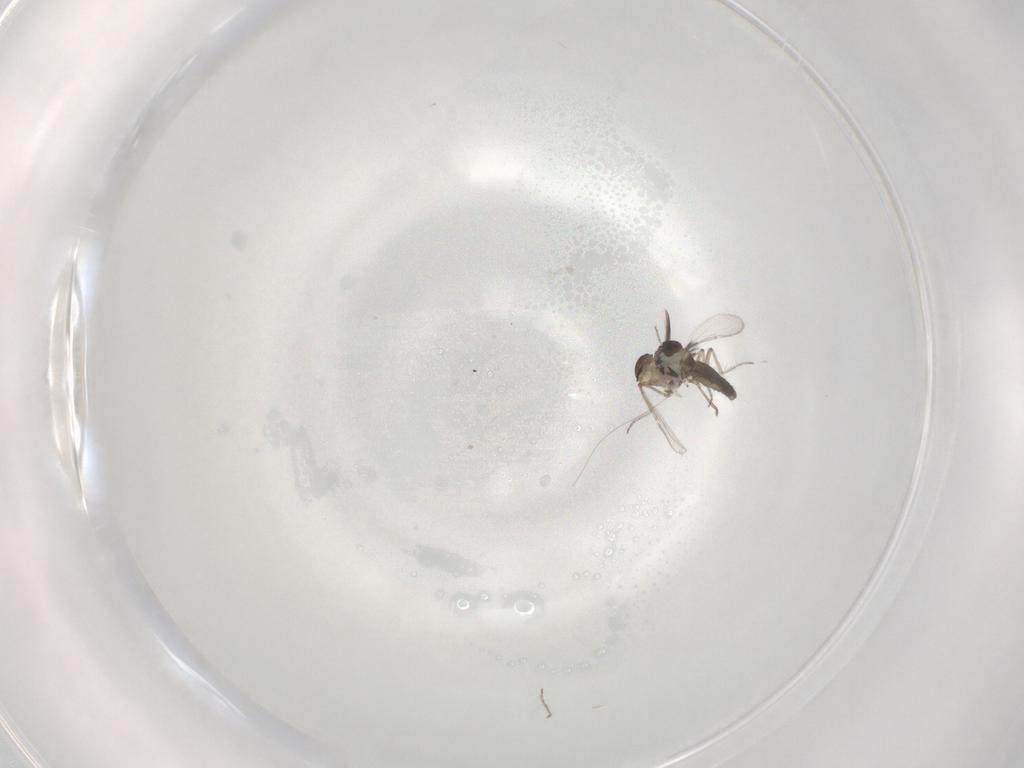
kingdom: Animalia
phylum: Arthropoda
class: Insecta
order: Diptera
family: Ceratopogonidae
